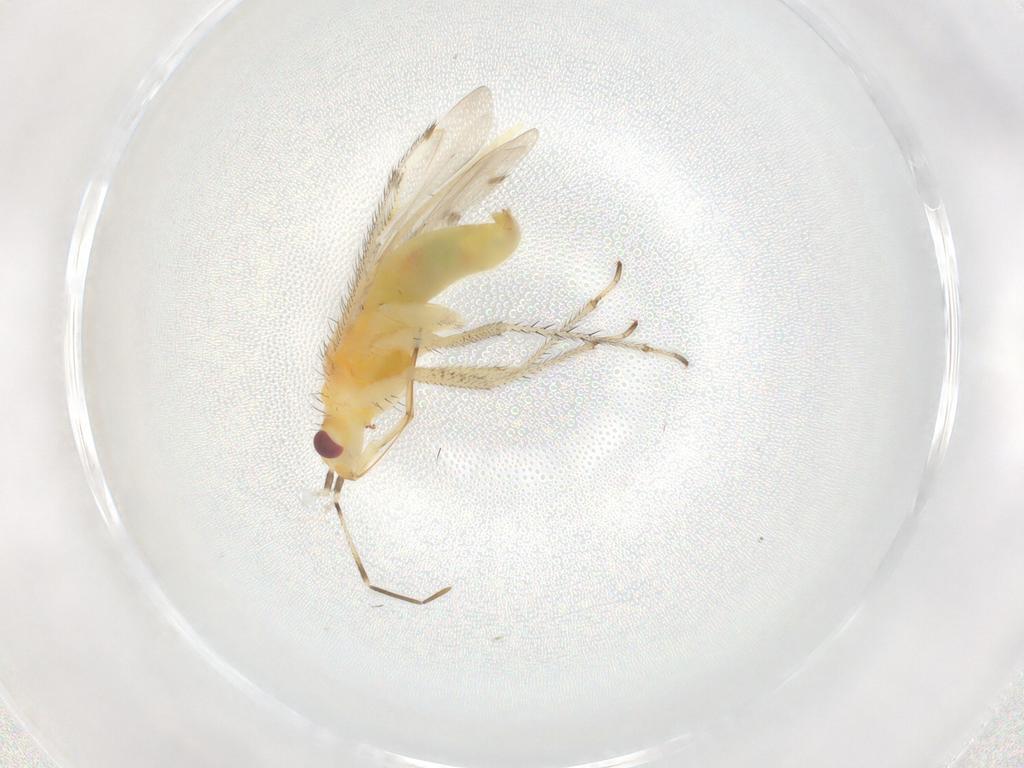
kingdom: Animalia
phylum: Arthropoda
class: Insecta
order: Hemiptera
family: Miridae
